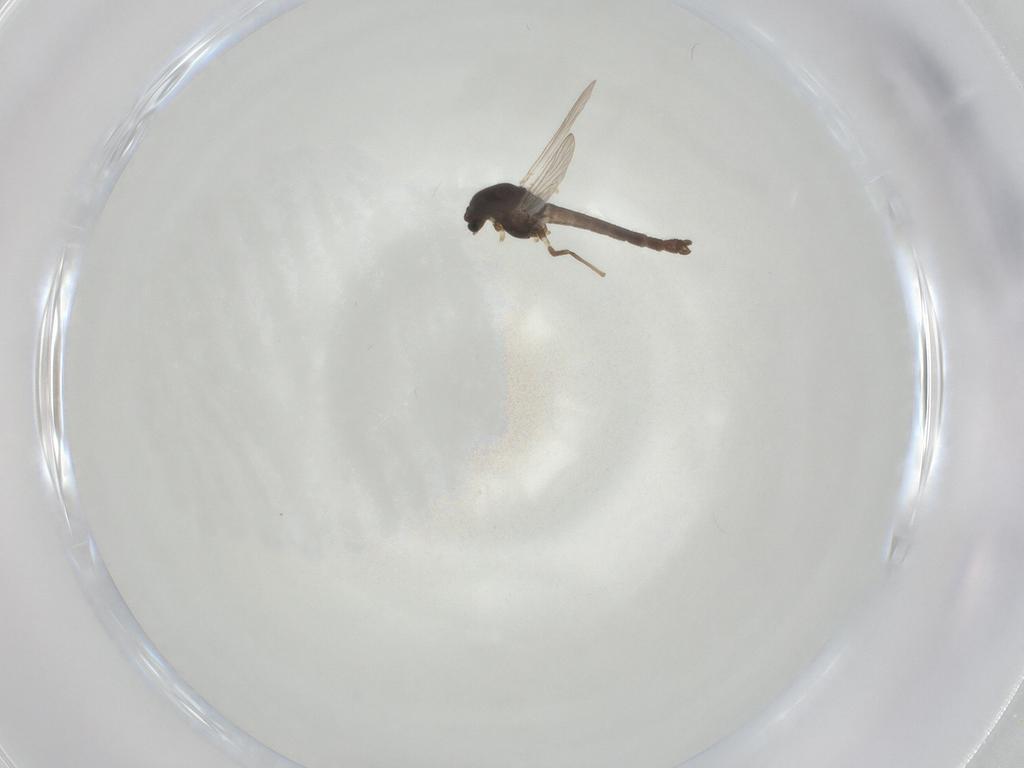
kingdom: Animalia
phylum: Arthropoda
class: Insecta
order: Diptera
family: Chironomidae
